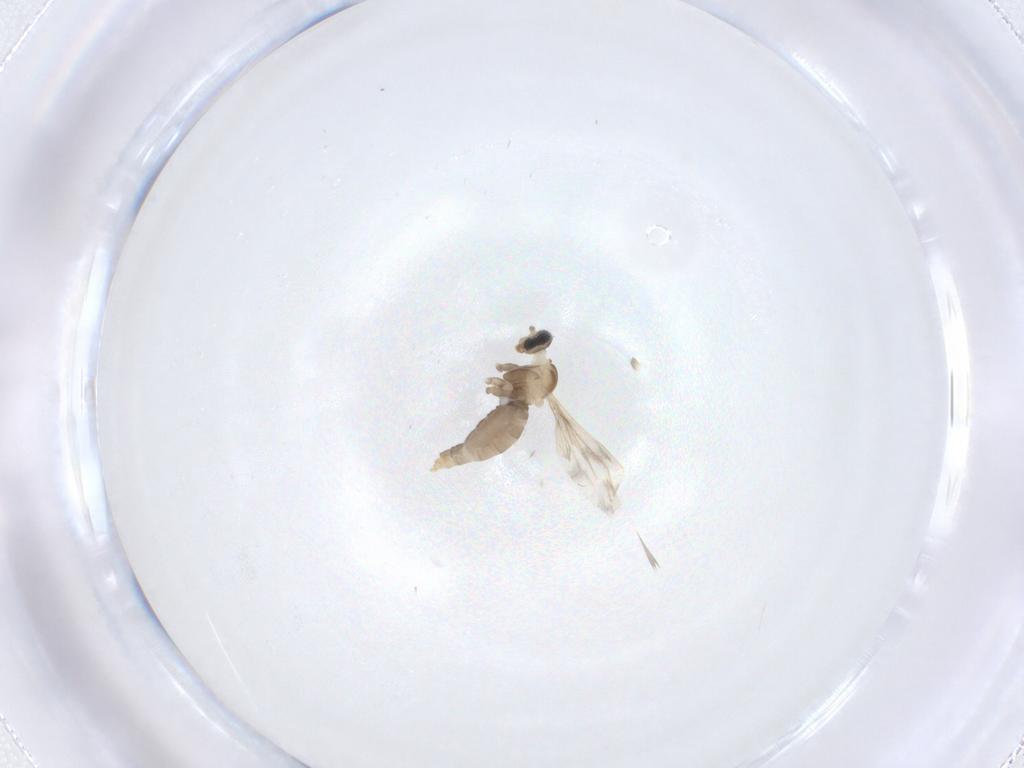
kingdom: Animalia
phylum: Arthropoda
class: Insecta
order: Diptera
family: Cecidomyiidae
